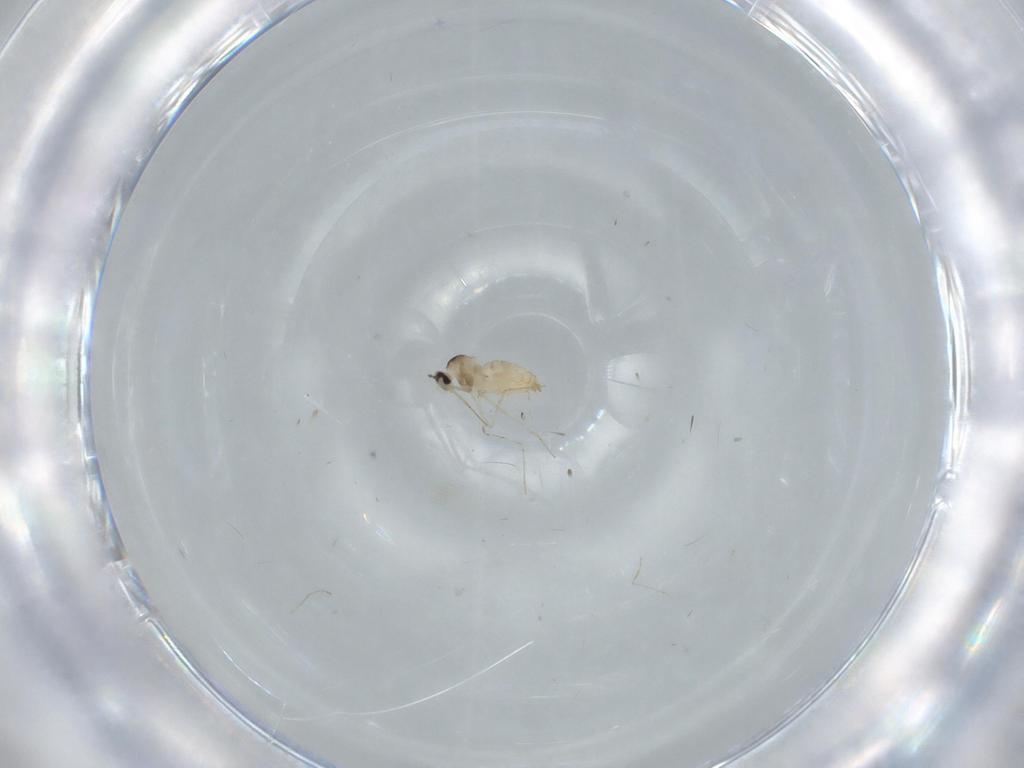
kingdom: Animalia
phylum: Arthropoda
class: Insecta
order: Diptera
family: Cecidomyiidae
